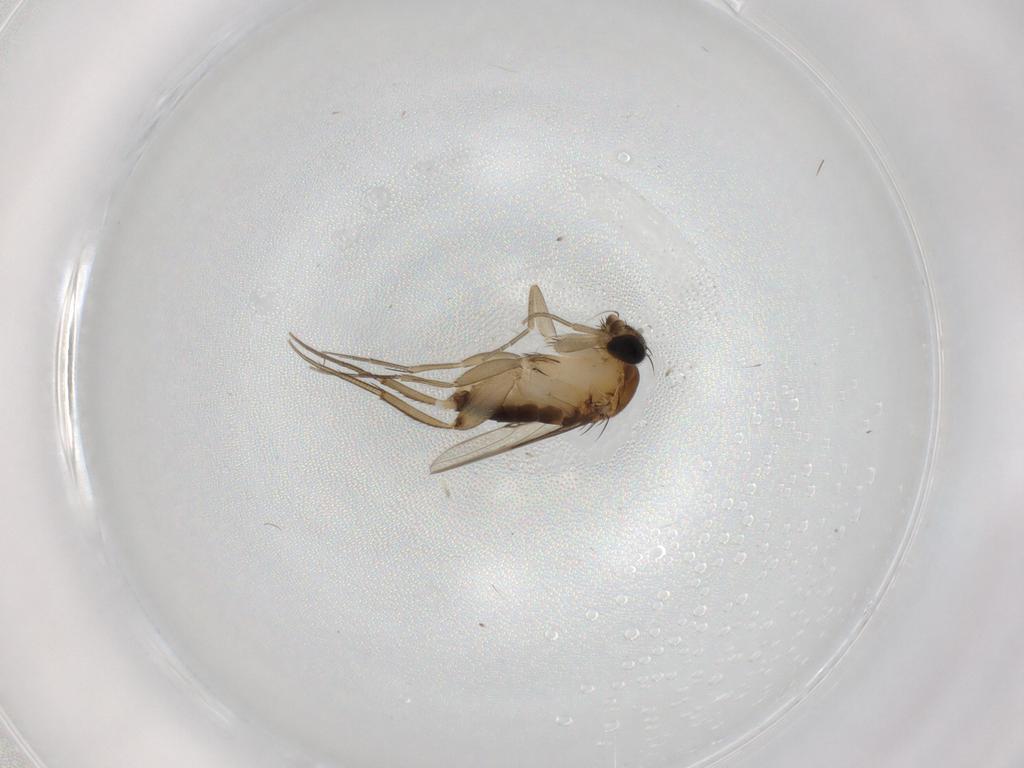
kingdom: Animalia
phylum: Arthropoda
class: Insecta
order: Diptera
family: Phoridae
